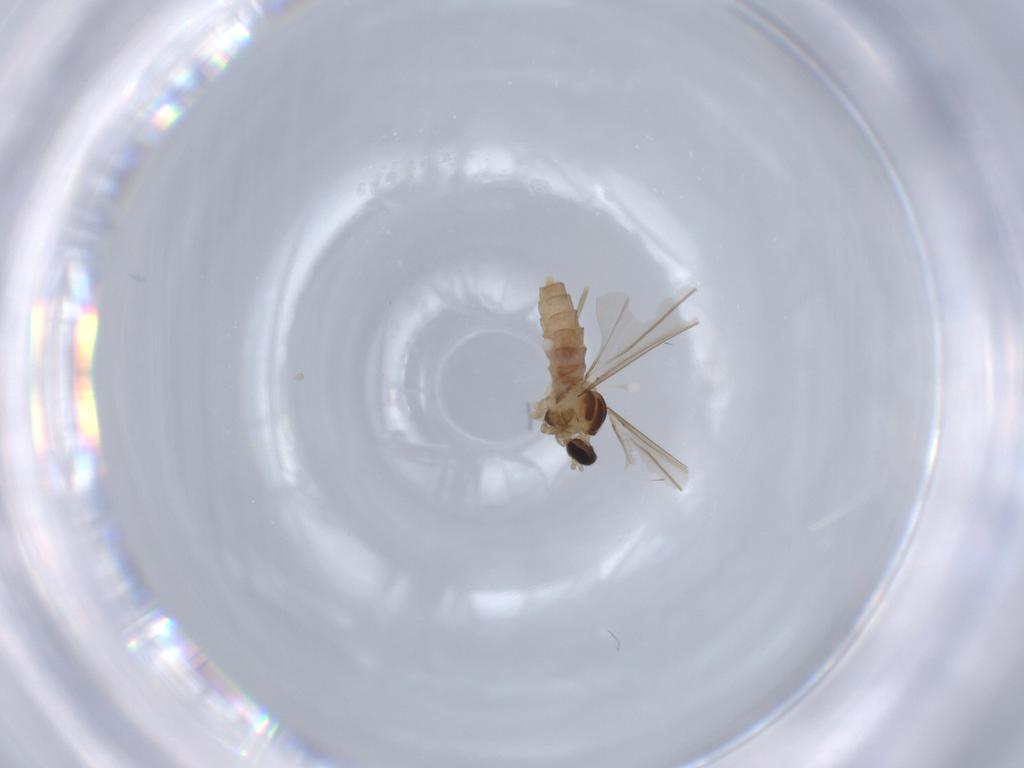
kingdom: Animalia
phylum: Arthropoda
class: Insecta
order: Diptera
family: Cecidomyiidae
